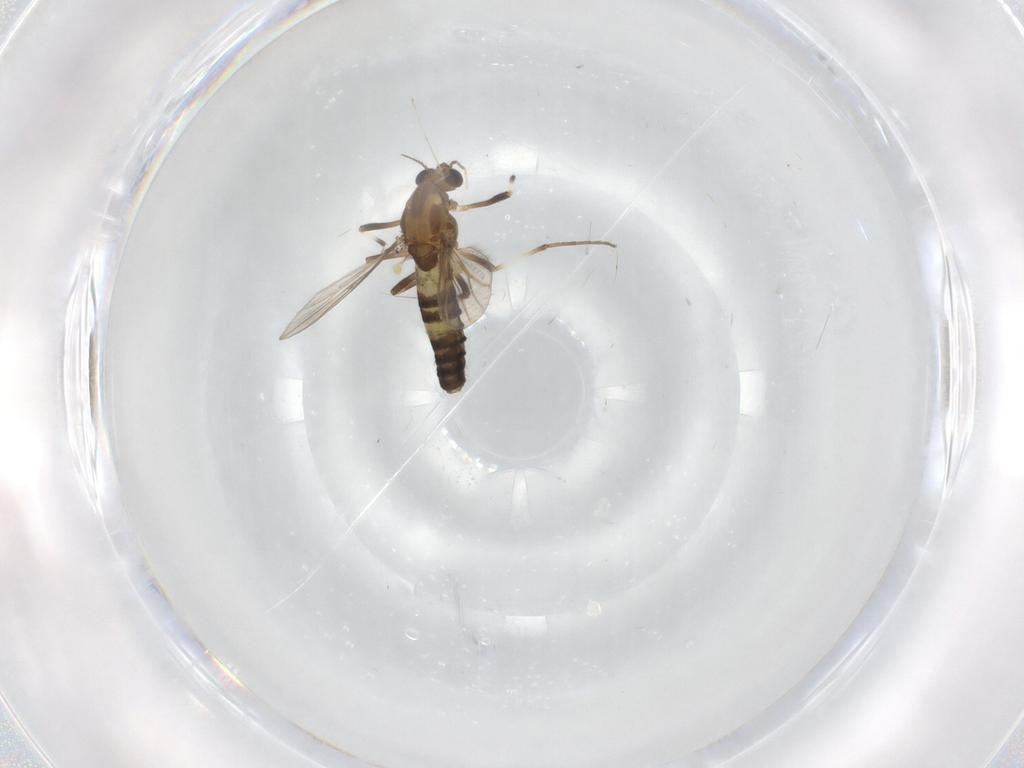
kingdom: Animalia
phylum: Arthropoda
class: Insecta
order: Diptera
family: Chironomidae
